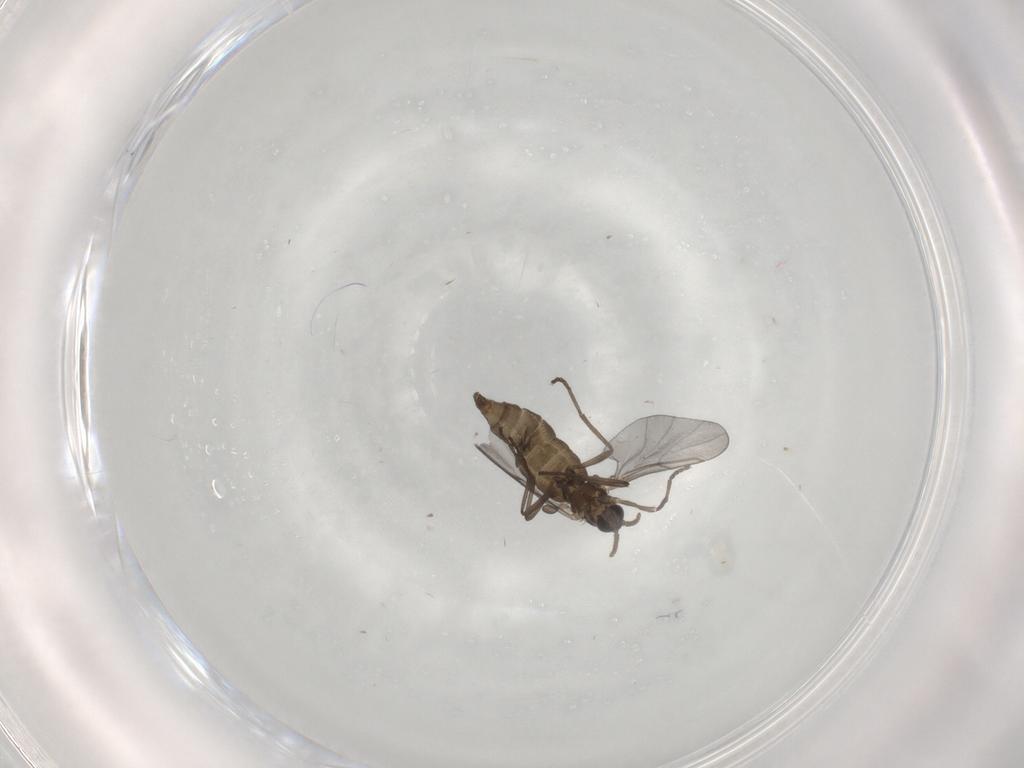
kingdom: Animalia
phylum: Arthropoda
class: Insecta
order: Diptera
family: Cecidomyiidae
